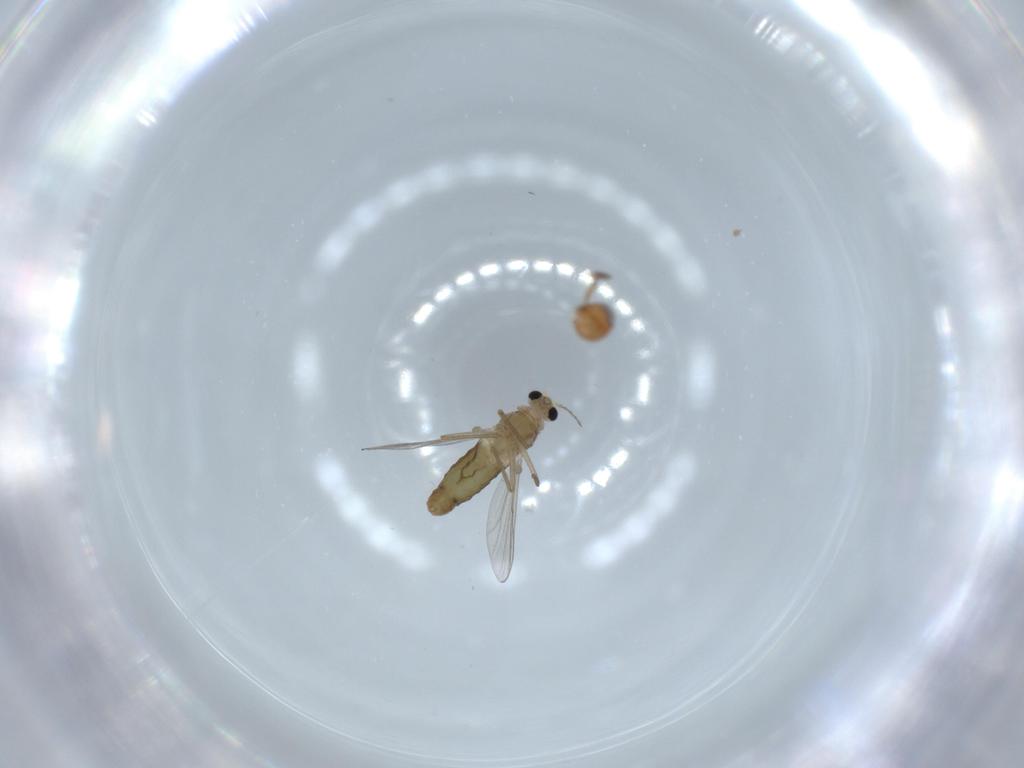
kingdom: Animalia
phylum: Arthropoda
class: Insecta
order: Diptera
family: Chironomidae
